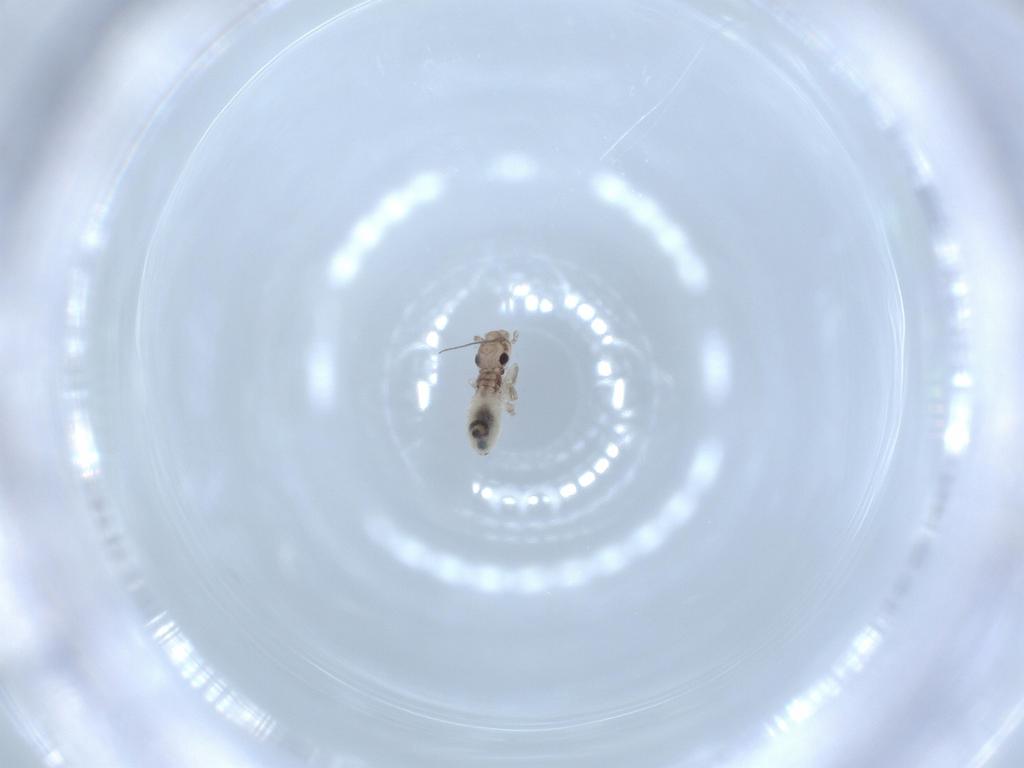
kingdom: Animalia
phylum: Arthropoda
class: Insecta
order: Psocodea
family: Lepidopsocidae
